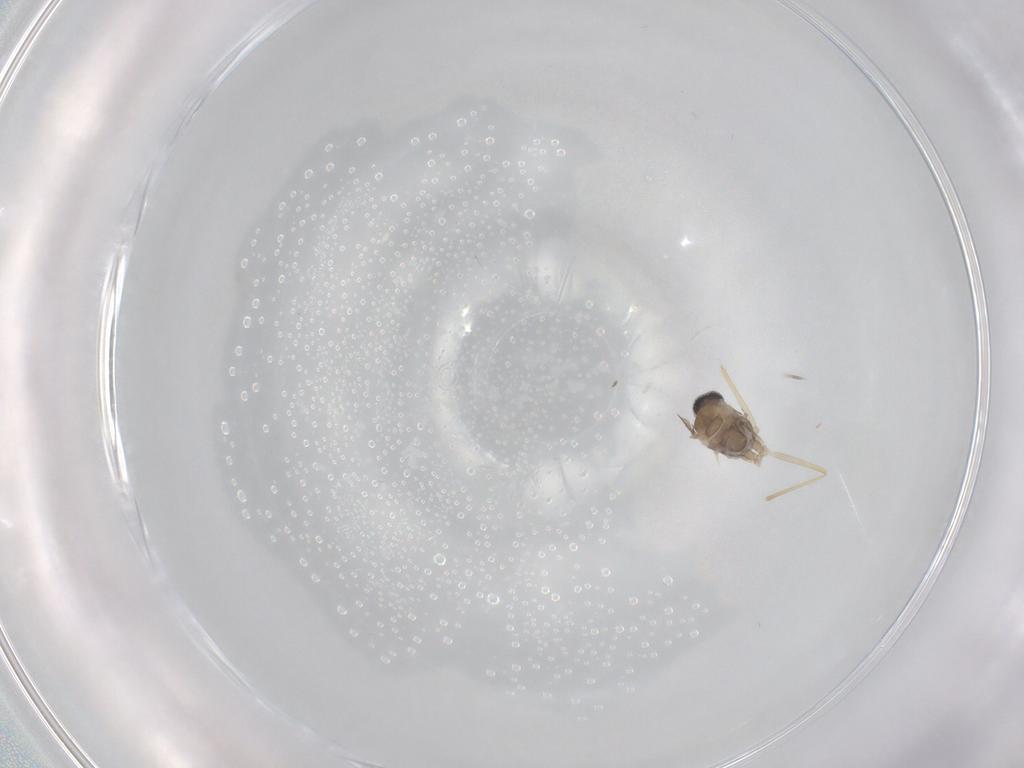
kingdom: Animalia
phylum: Arthropoda
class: Insecta
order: Diptera
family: Cecidomyiidae
